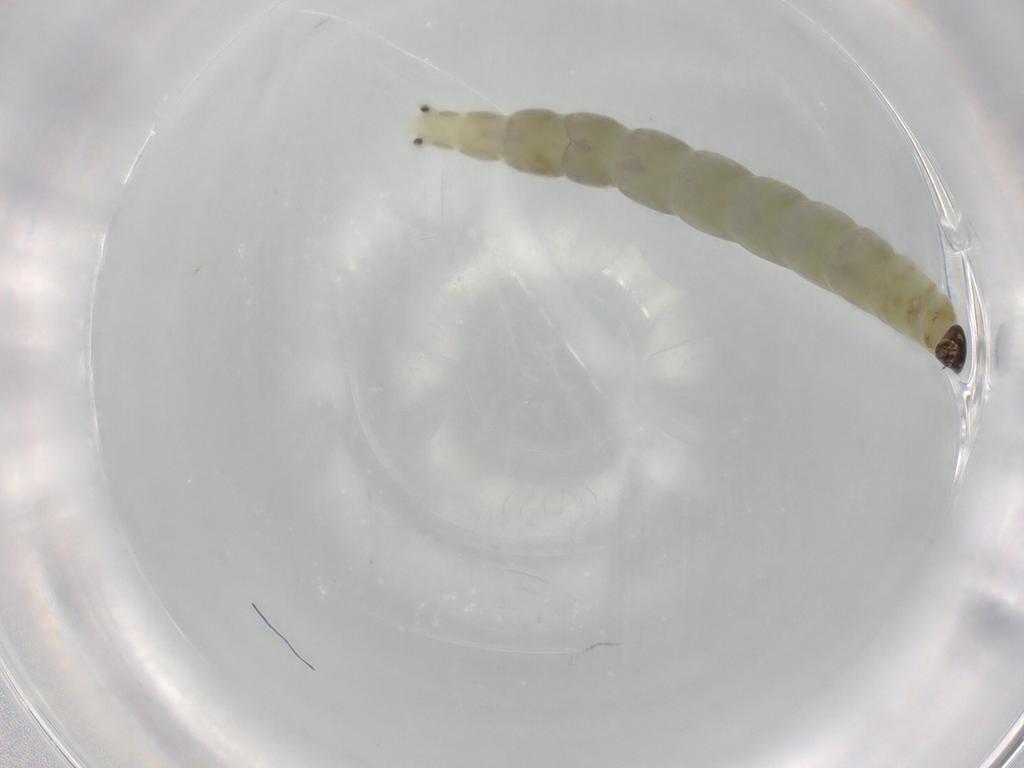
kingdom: Animalia
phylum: Arthropoda
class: Insecta
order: Diptera
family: Chironomidae
